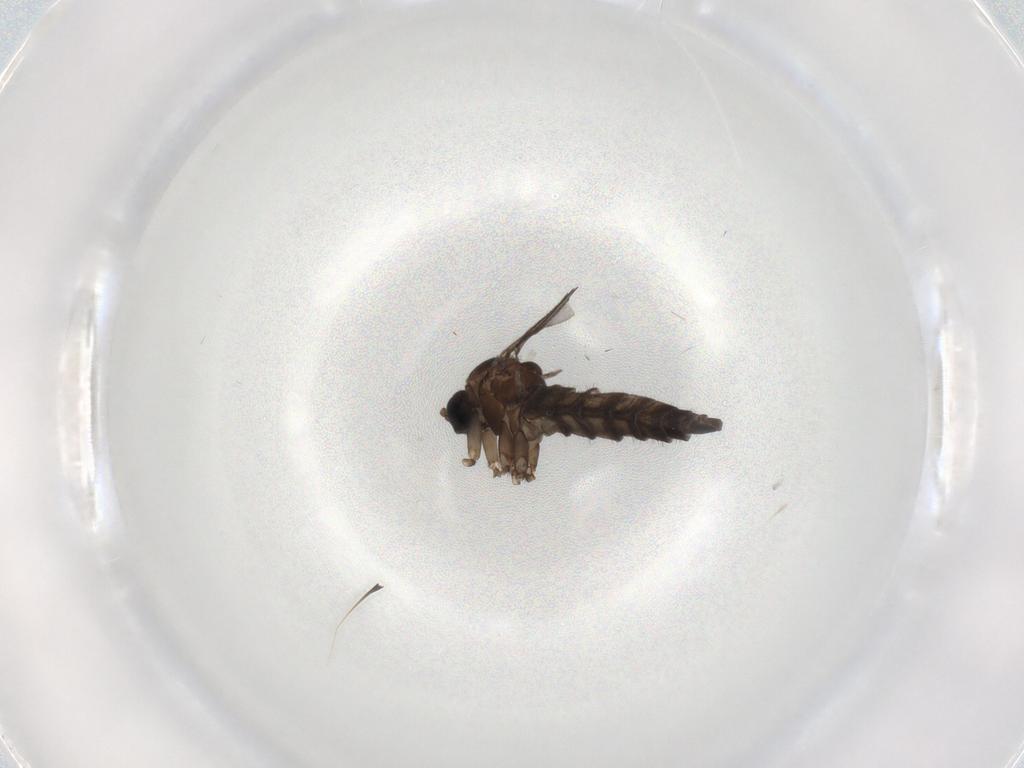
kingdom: Animalia
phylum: Arthropoda
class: Insecta
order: Diptera
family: Sciaridae
